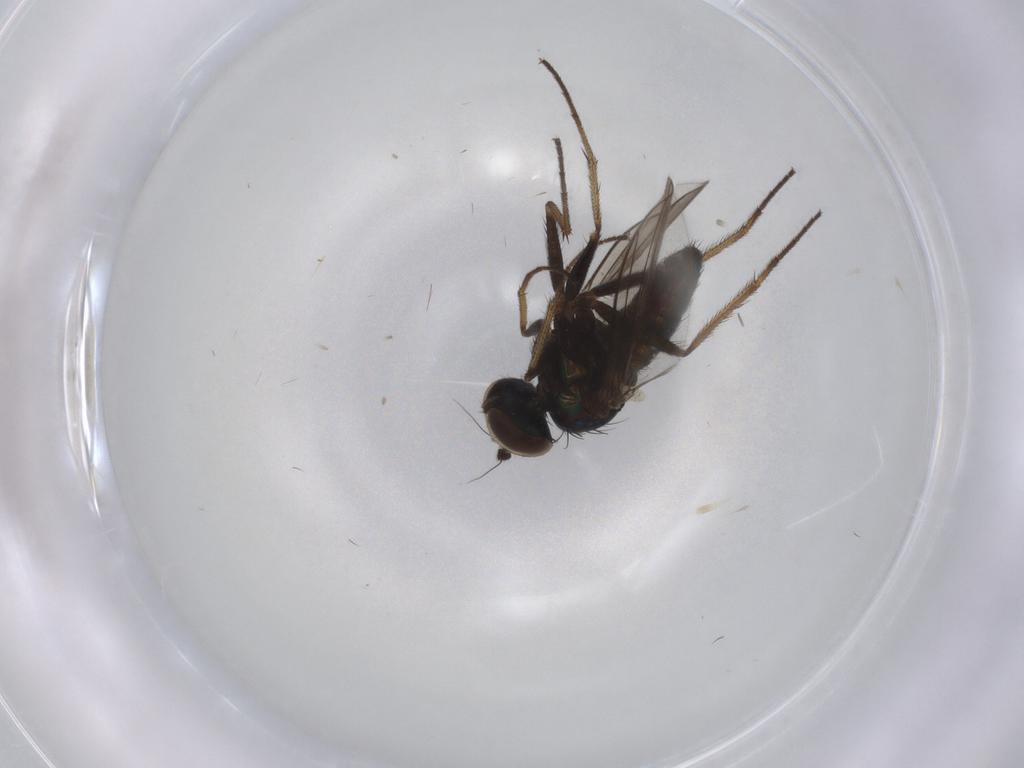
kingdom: Animalia
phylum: Arthropoda
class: Insecta
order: Diptera
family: Dolichopodidae
